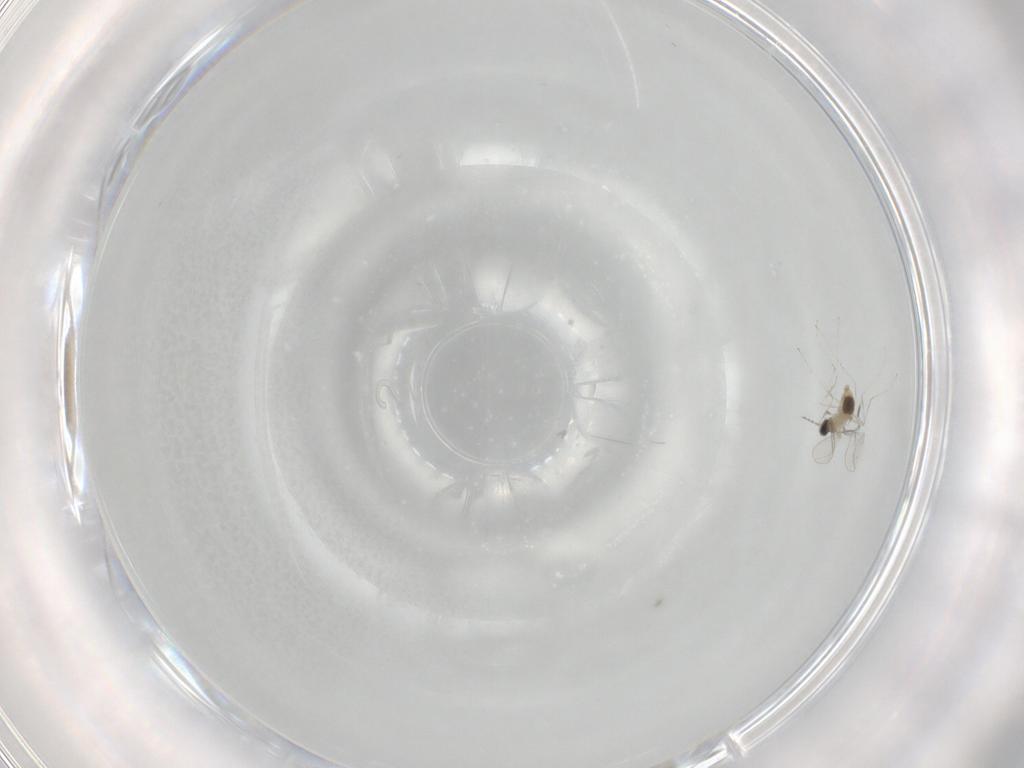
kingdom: Animalia
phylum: Arthropoda
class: Insecta
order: Diptera
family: Cecidomyiidae
